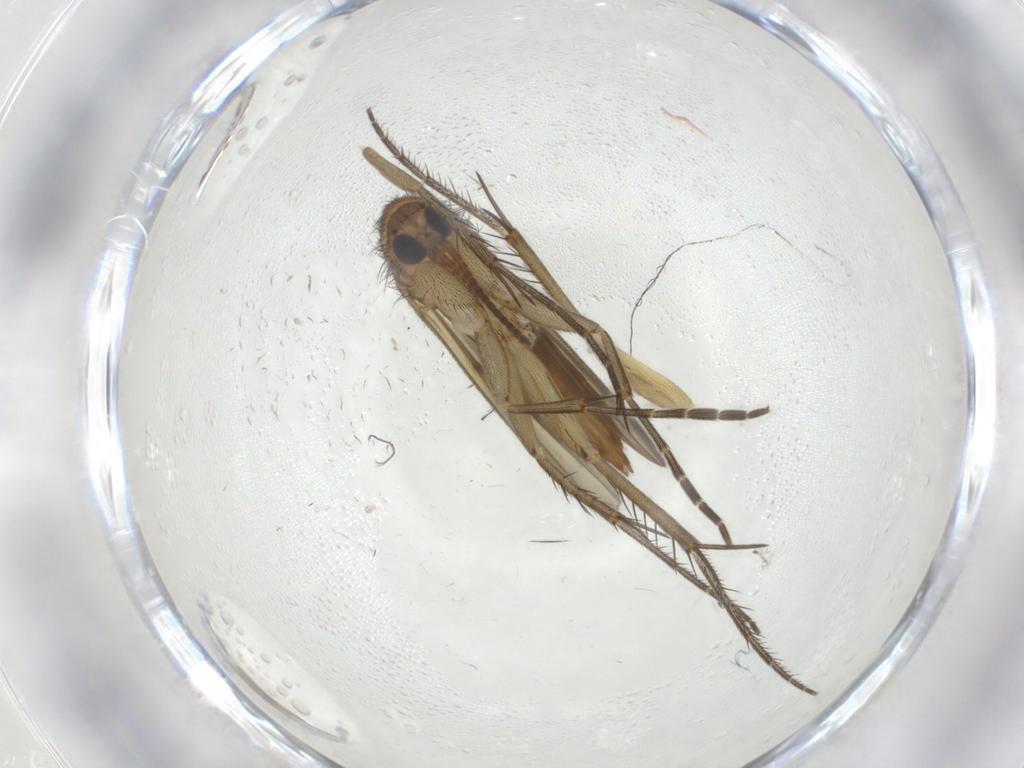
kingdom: Animalia
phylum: Arthropoda
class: Insecta
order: Diptera
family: Mycetophilidae
